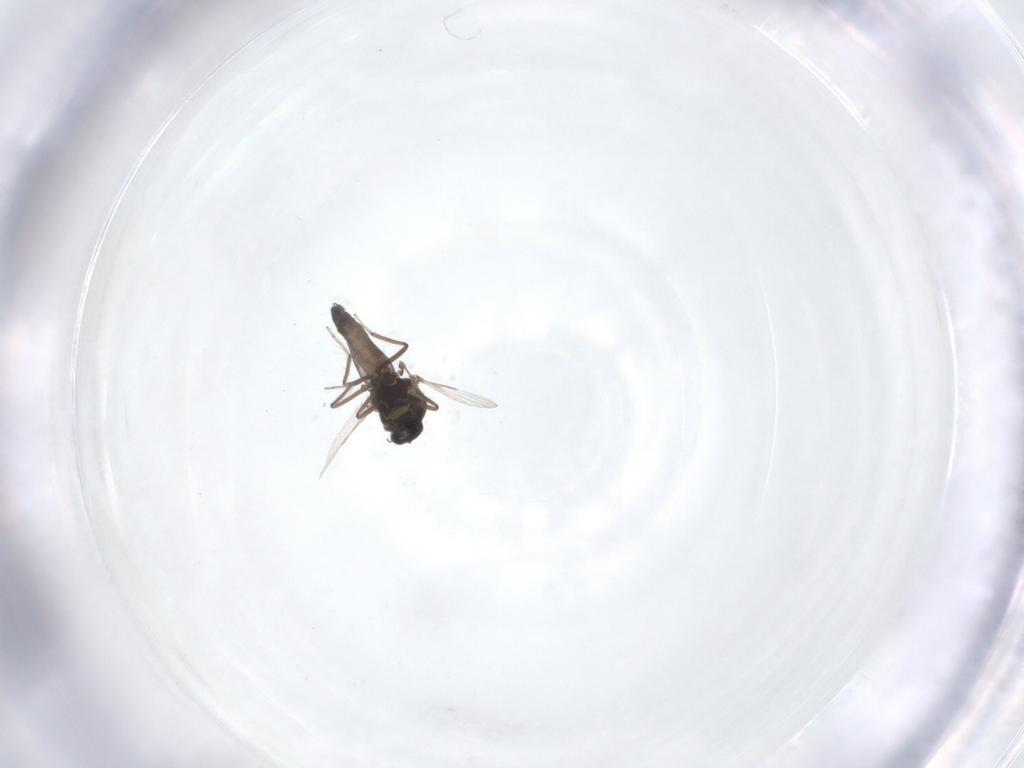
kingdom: Animalia
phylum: Arthropoda
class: Insecta
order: Diptera
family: Ceratopogonidae
